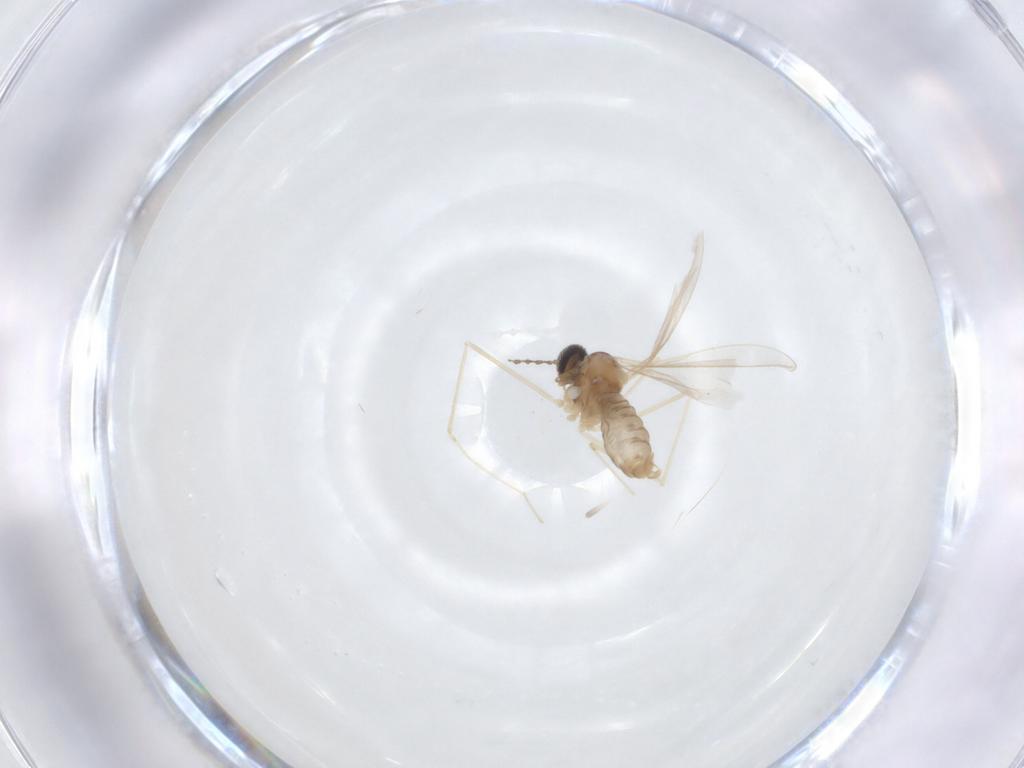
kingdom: Animalia
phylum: Arthropoda
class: Insecta
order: Diptera
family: Cecidomyiidae
